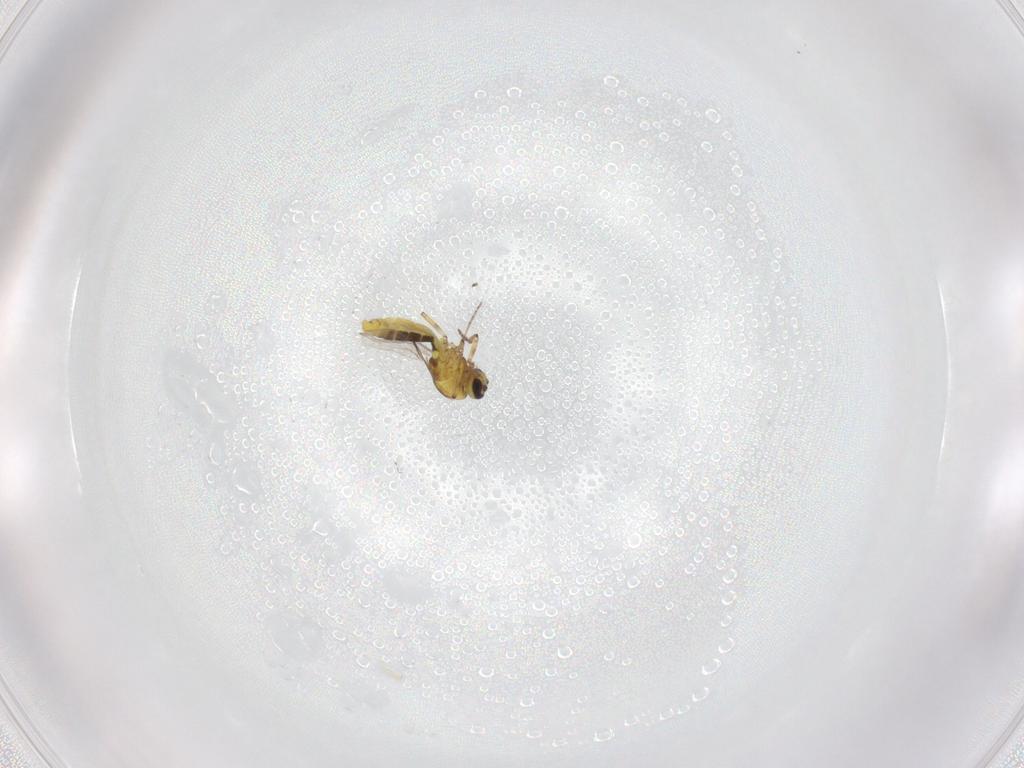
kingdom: Animalia
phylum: Arthropoda
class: Insecta
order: Diptera
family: Ceratopogonidae
